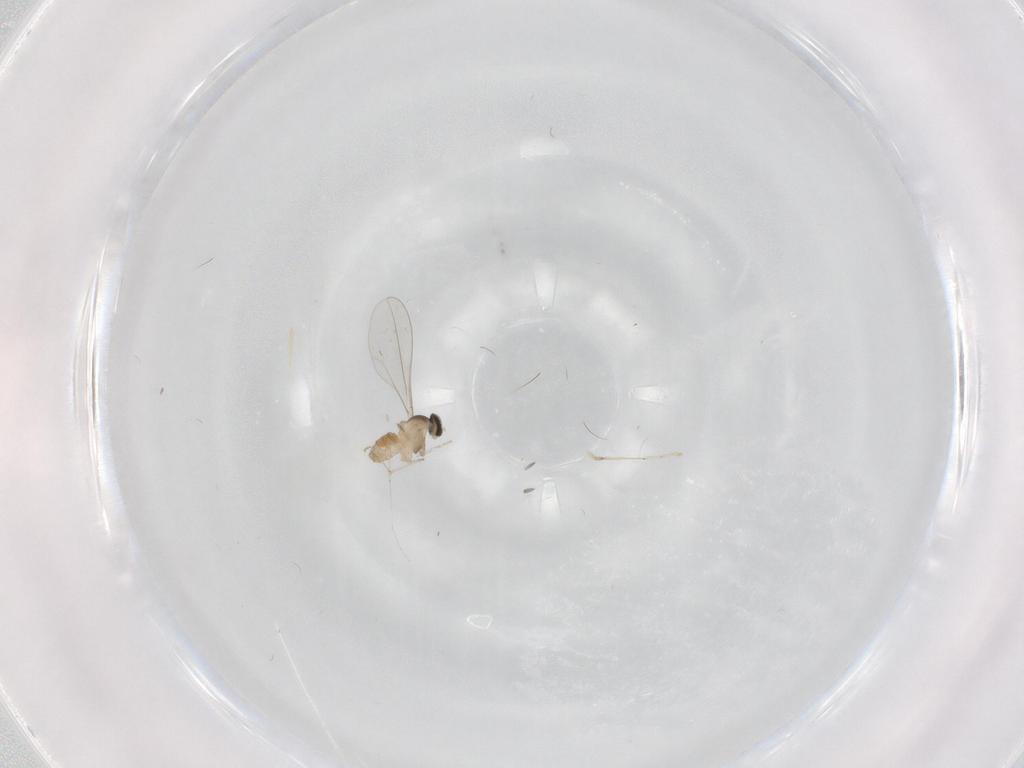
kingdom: Animalia
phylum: Arthropoda
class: Insecta
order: Diptera
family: Cecidomyiidae
